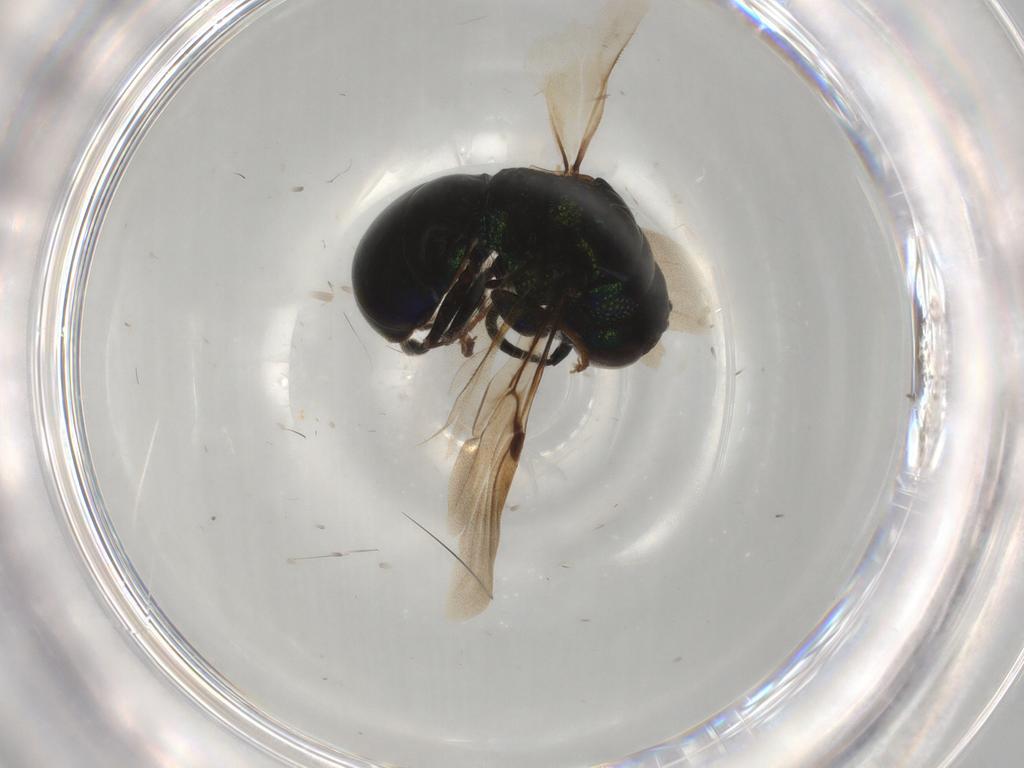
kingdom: Animalia
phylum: Arthropoda
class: Insecta
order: Hymenoptera
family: Chrysididae
